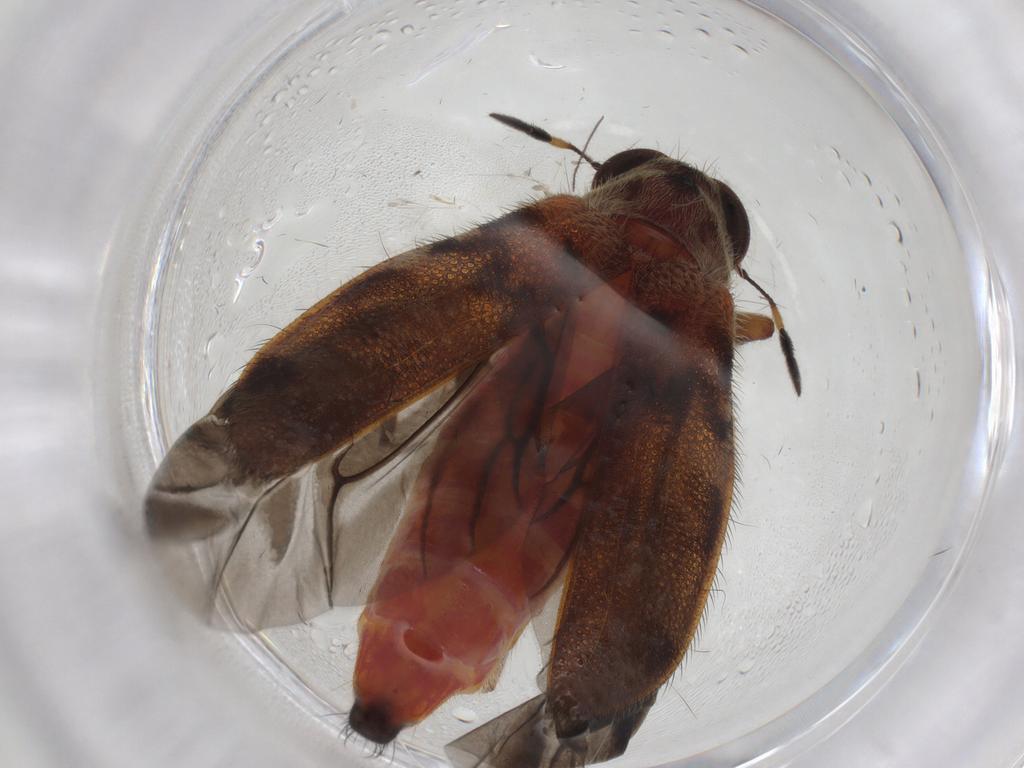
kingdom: Animalia
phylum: Arthropoda
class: Insecta
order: Coleoptera
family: Cleridae
